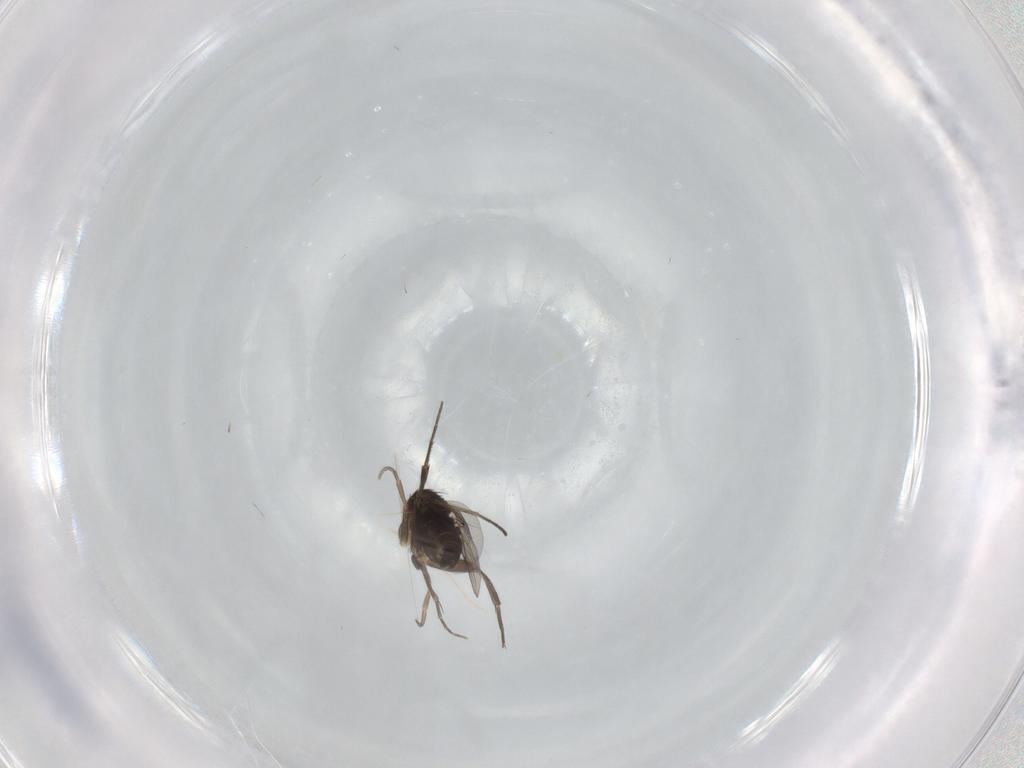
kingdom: Animalia
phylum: Arthropoda
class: Insecta
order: Diptera
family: Phoridae
